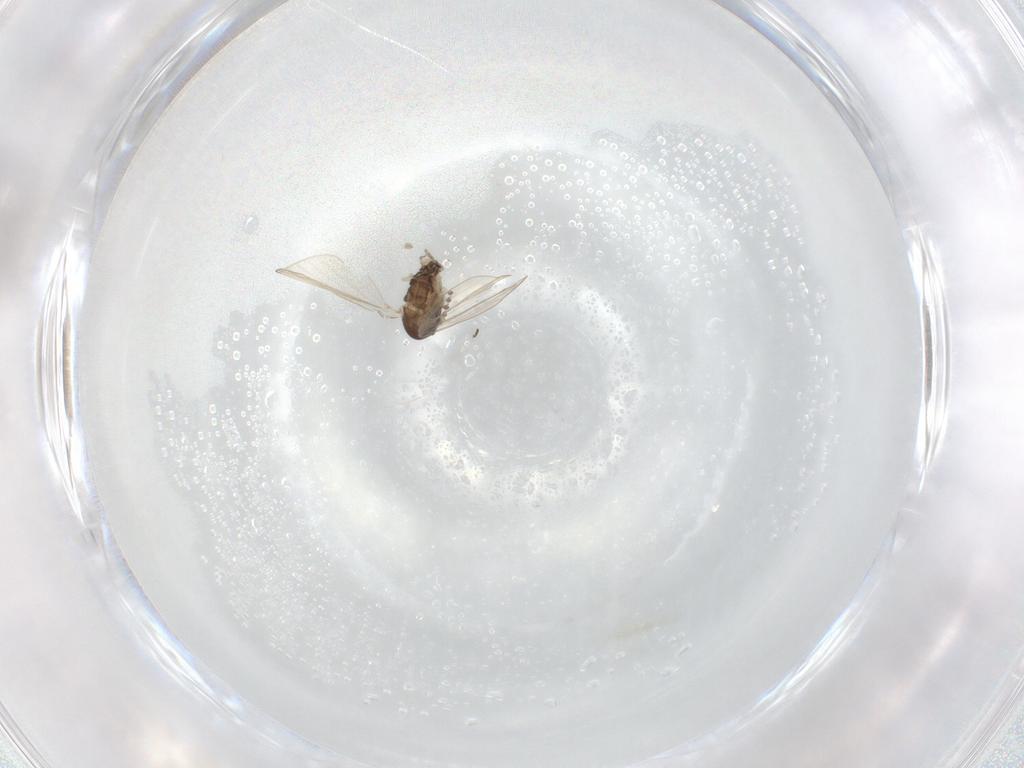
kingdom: Animalia
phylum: Arthropoda
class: Insecta
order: Diptera
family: Psychodidae
